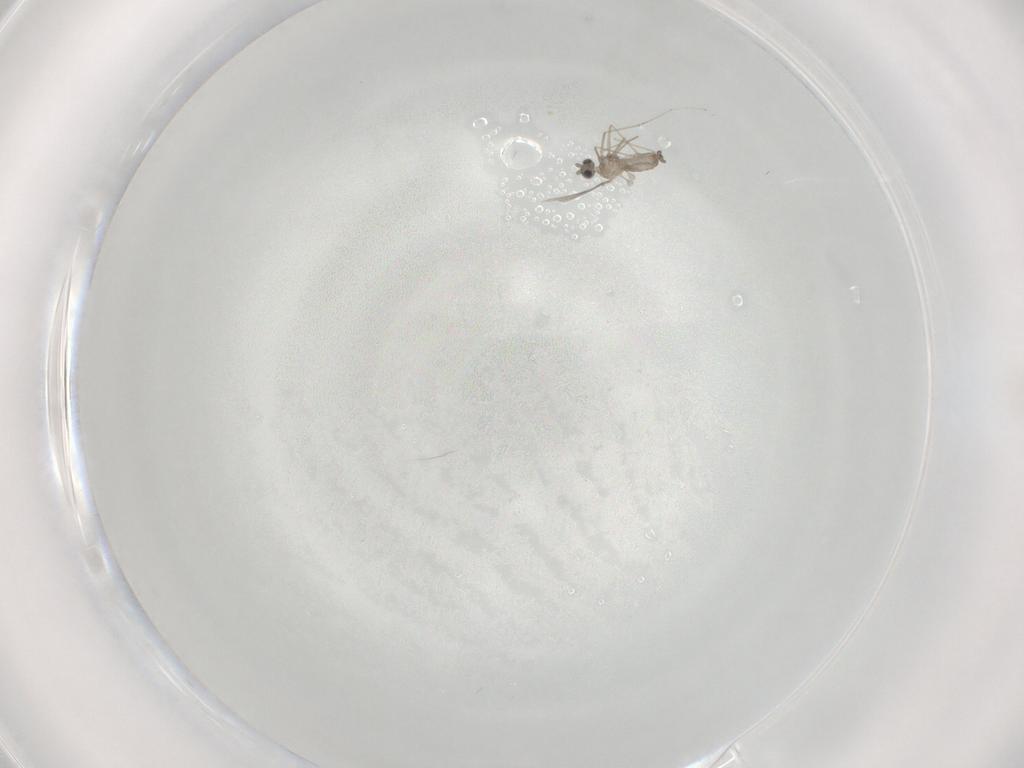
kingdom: Animalia
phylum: Arthropoda
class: Insecta
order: Diptera
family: Cecidomyiidae
